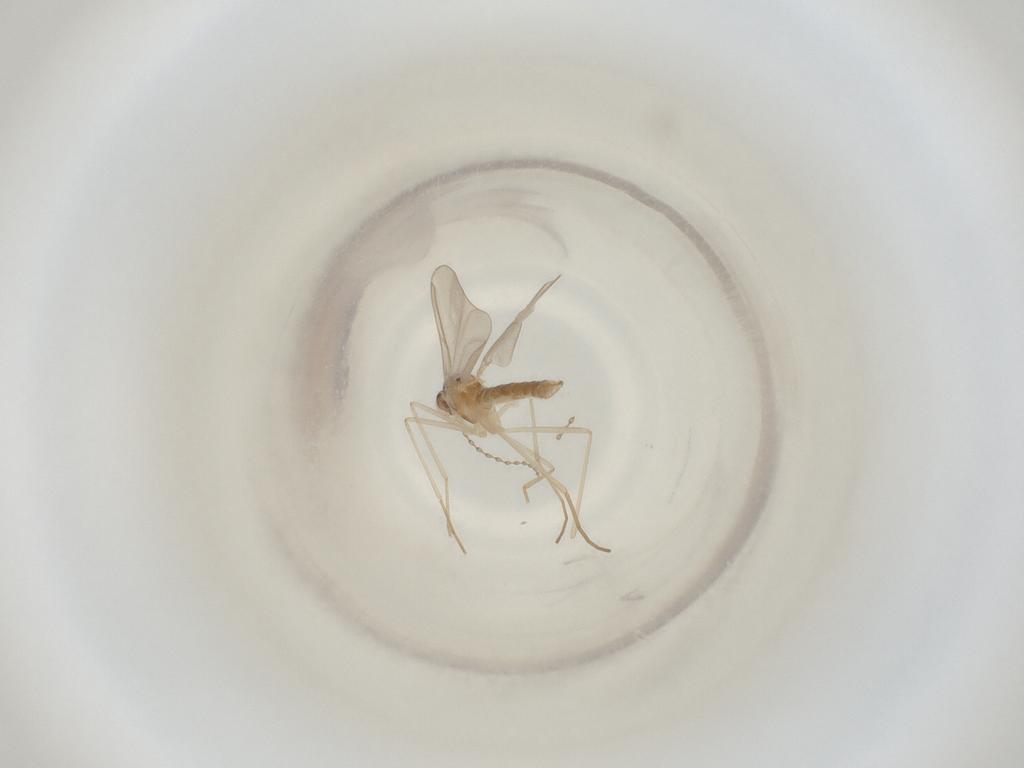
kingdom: Animalia
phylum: Arthropoda
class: Insecta
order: Diptera
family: Cecidomyiidae
